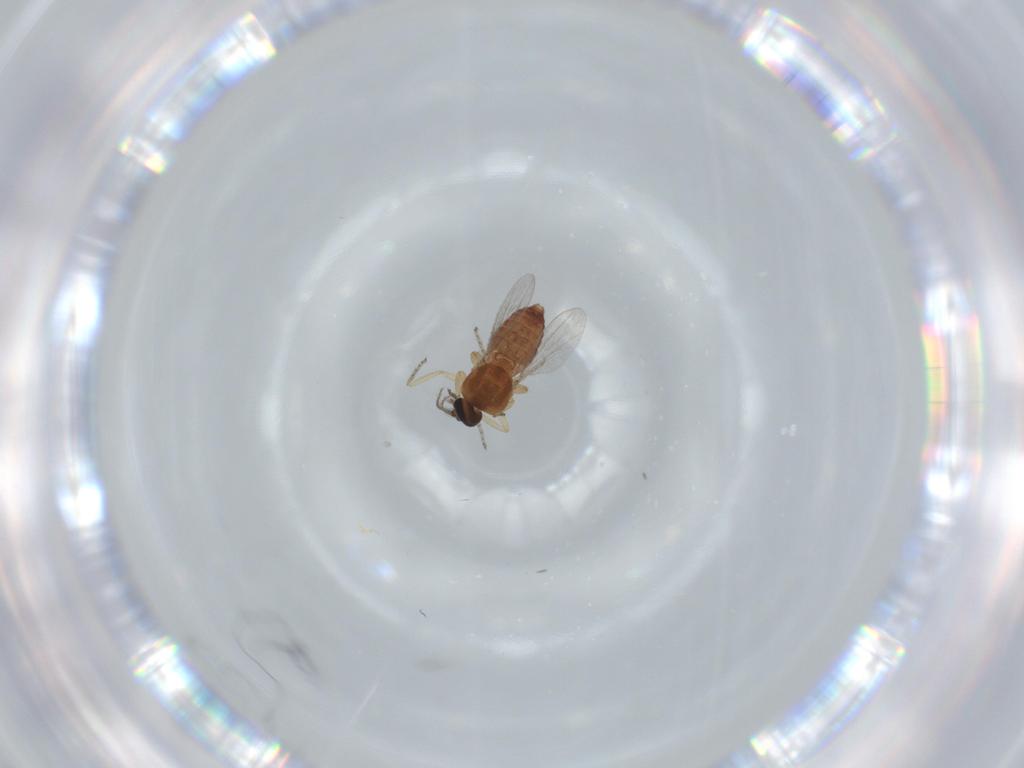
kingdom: Animalia
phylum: Arthropoda
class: Insecta
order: Diptera
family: Ceratopogonidae
